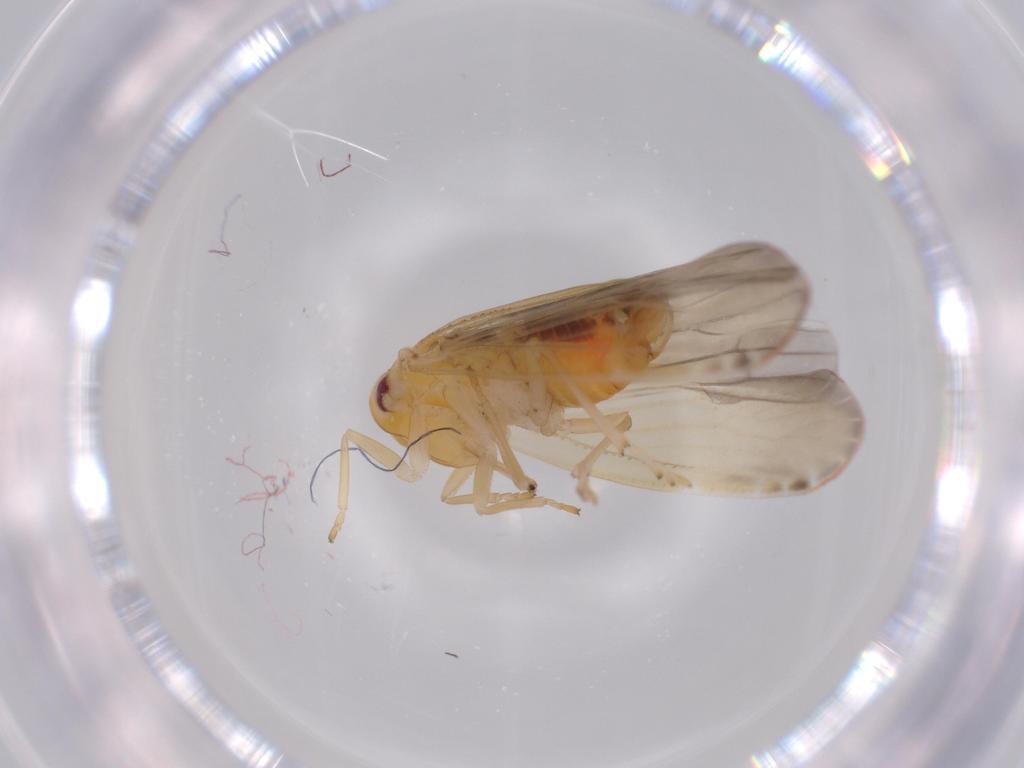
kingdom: Animalia
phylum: Arthropoda
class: Insecta
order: Hemiptera
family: Derbidae
